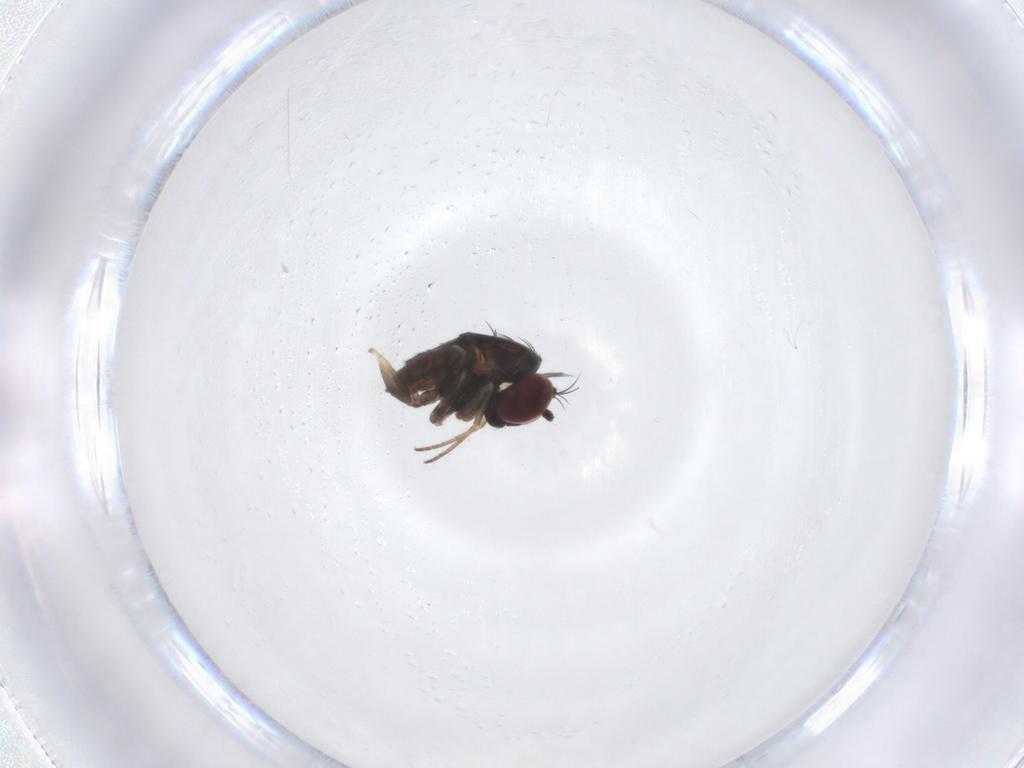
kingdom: Animalia
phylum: Arthropoda
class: Insecta
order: Diptera
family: Dolichopodidae
